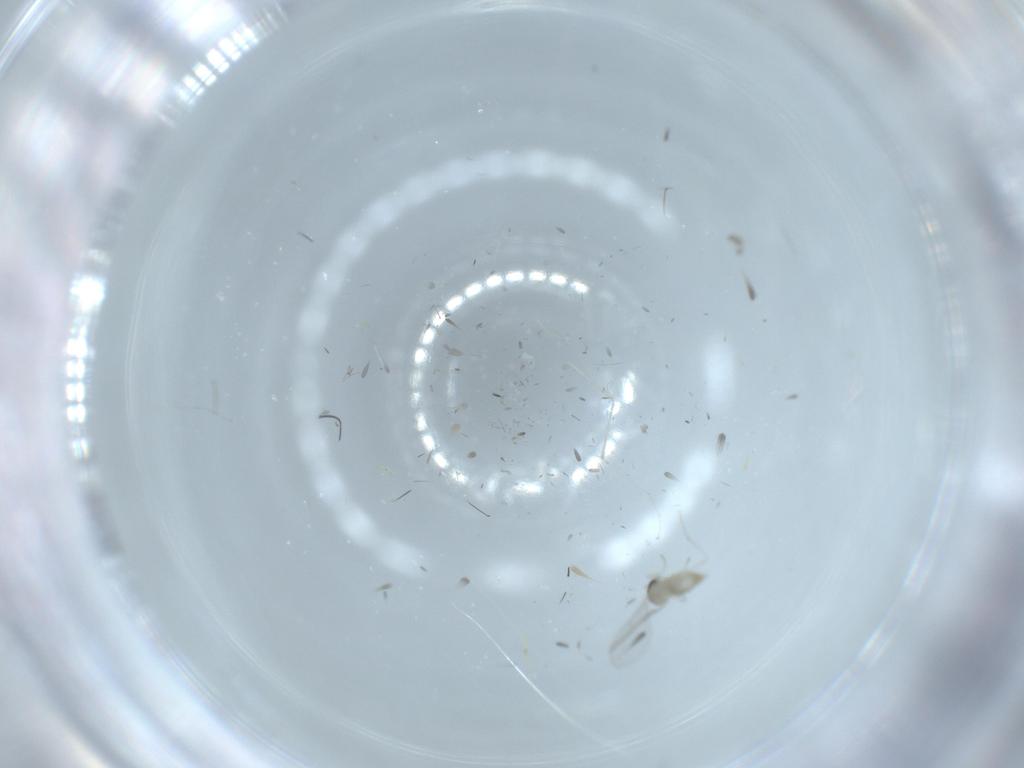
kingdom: Animalia
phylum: Arthropoda
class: Insecta
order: Diptera
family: Cecidomyiidae
